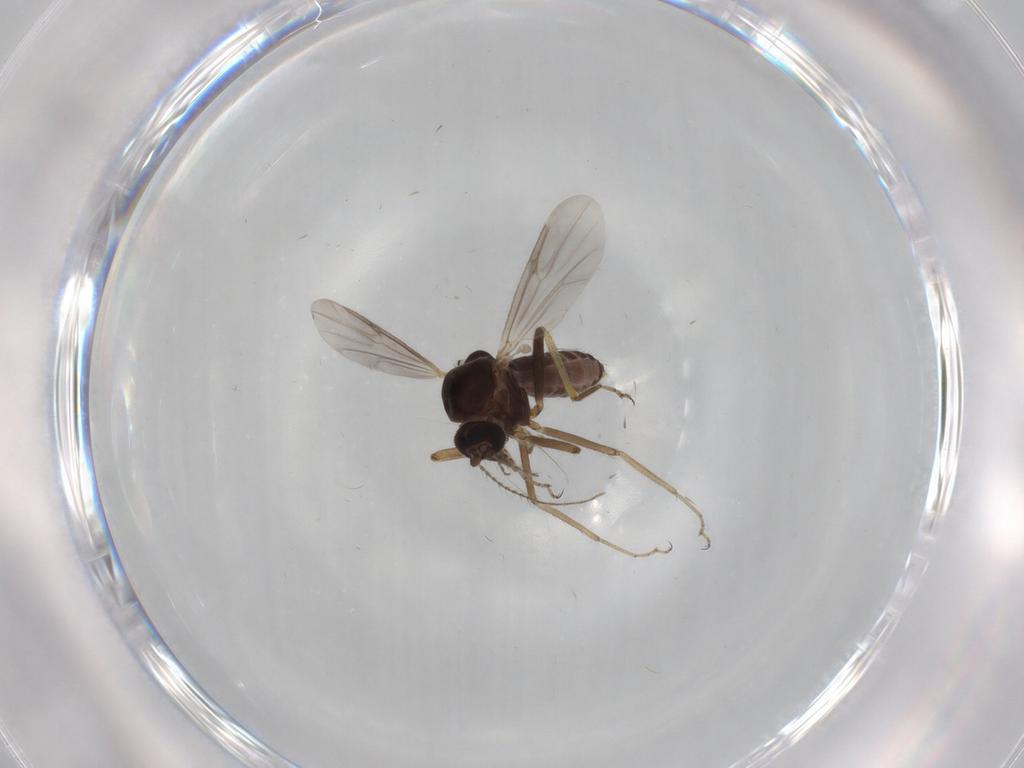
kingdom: Animalia
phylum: Arthropoda
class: Insecta
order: Diptera
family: Ceratopogonidae
